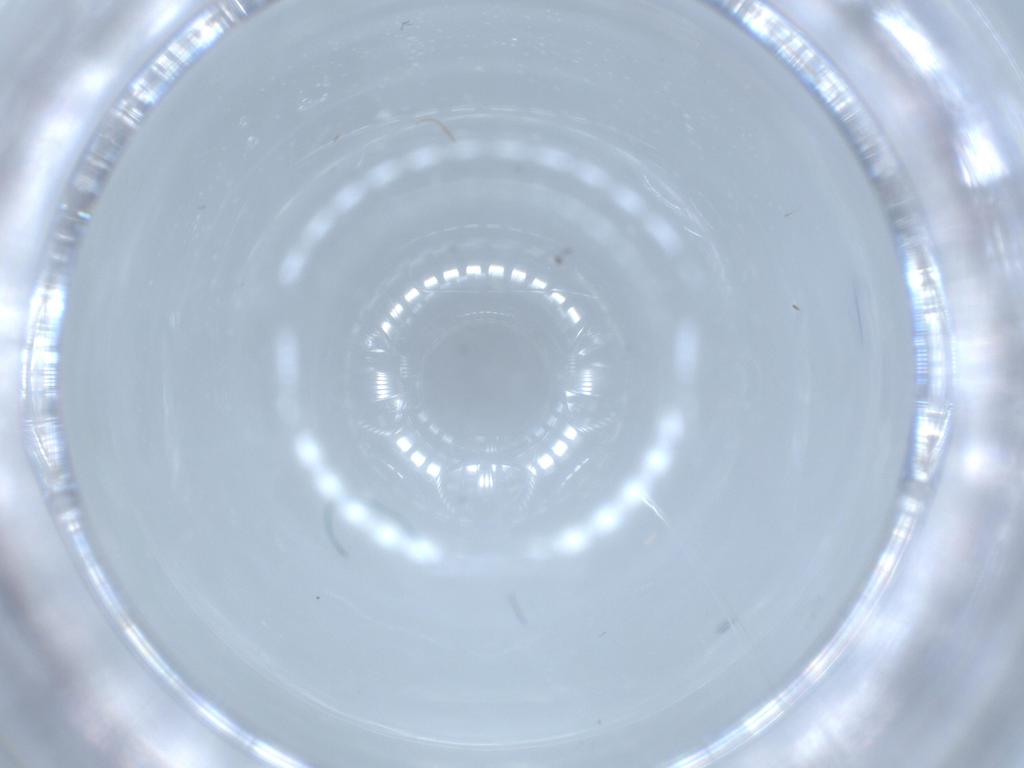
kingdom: Animalia
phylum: Arthropoda
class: Insecta
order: Diptera
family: Sciaridae
